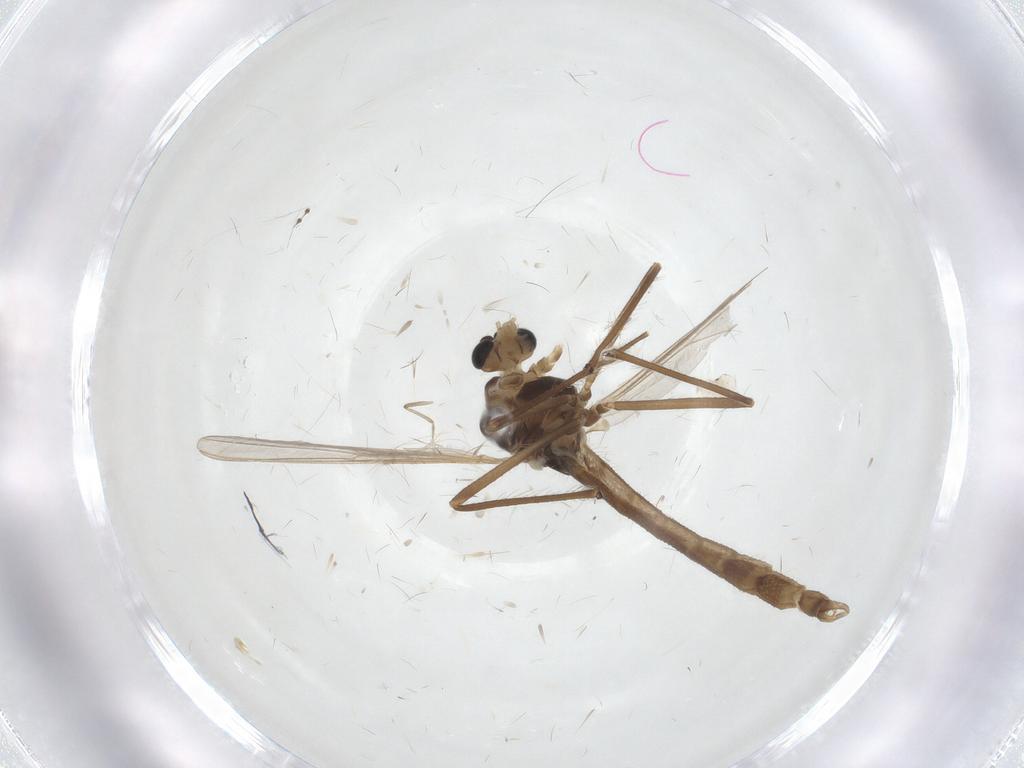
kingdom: Animalia
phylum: Arthropoda
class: Insecta
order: Diptera
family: Chironomidae
